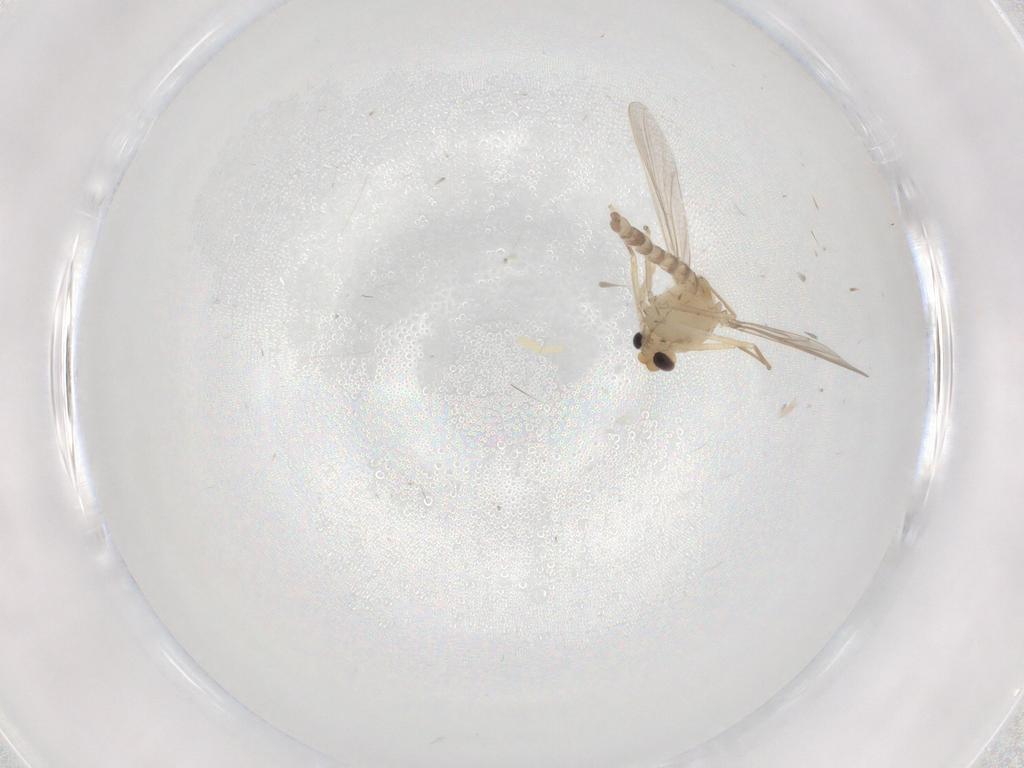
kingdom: Animalia
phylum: Arthropoda
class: Insecta
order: Diptera
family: Chironomidae
